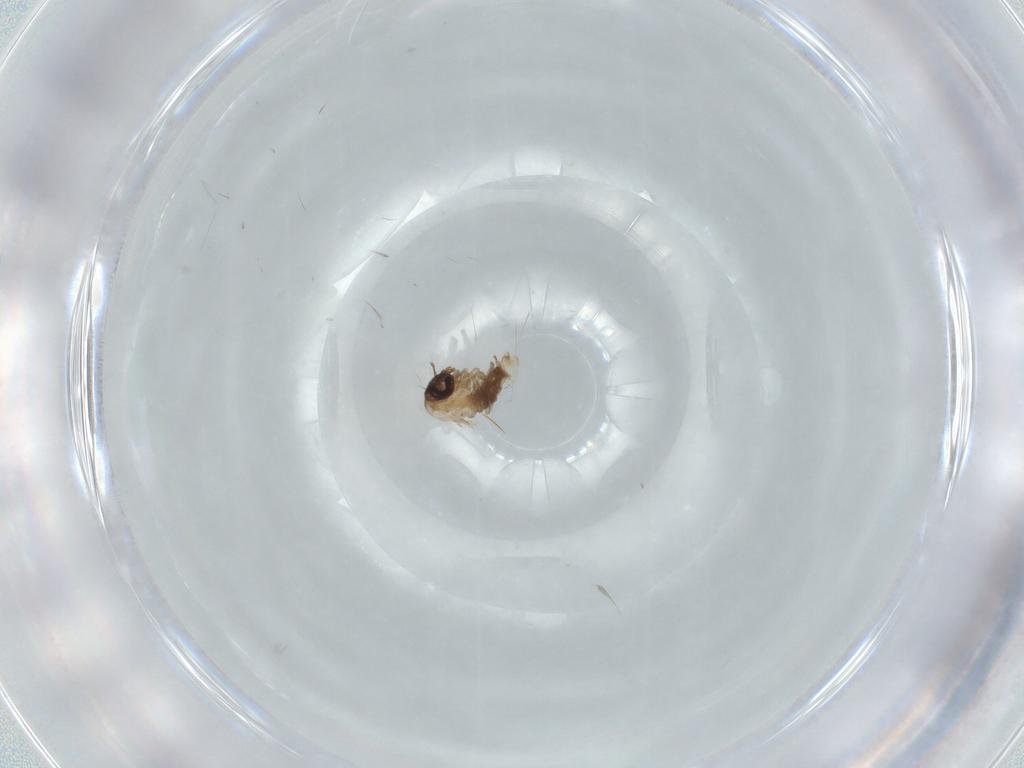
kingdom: Animalia
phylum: Arthropoda
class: Insecta
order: Diptera
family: Psychodidae
